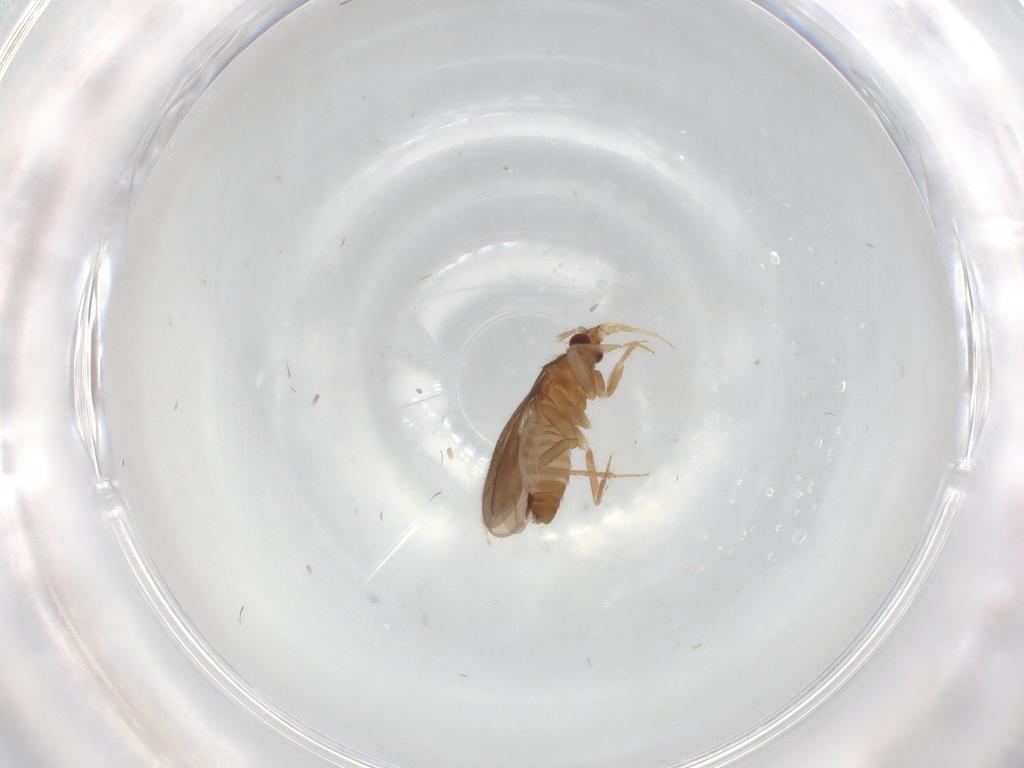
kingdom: Animalia
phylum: Arthropoda
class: Insecta
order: Hemiptera
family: Ceratocombidae
